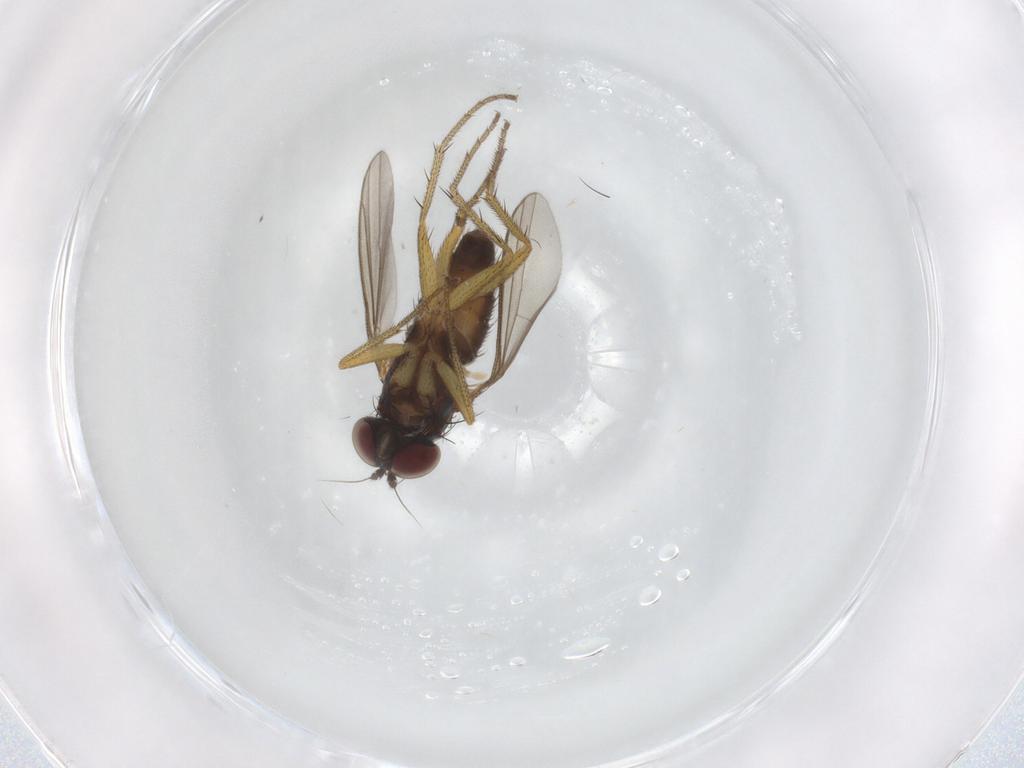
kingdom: Animalia
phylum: Arthropoda
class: Insecta
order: Diptera
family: Dolichopodidae
